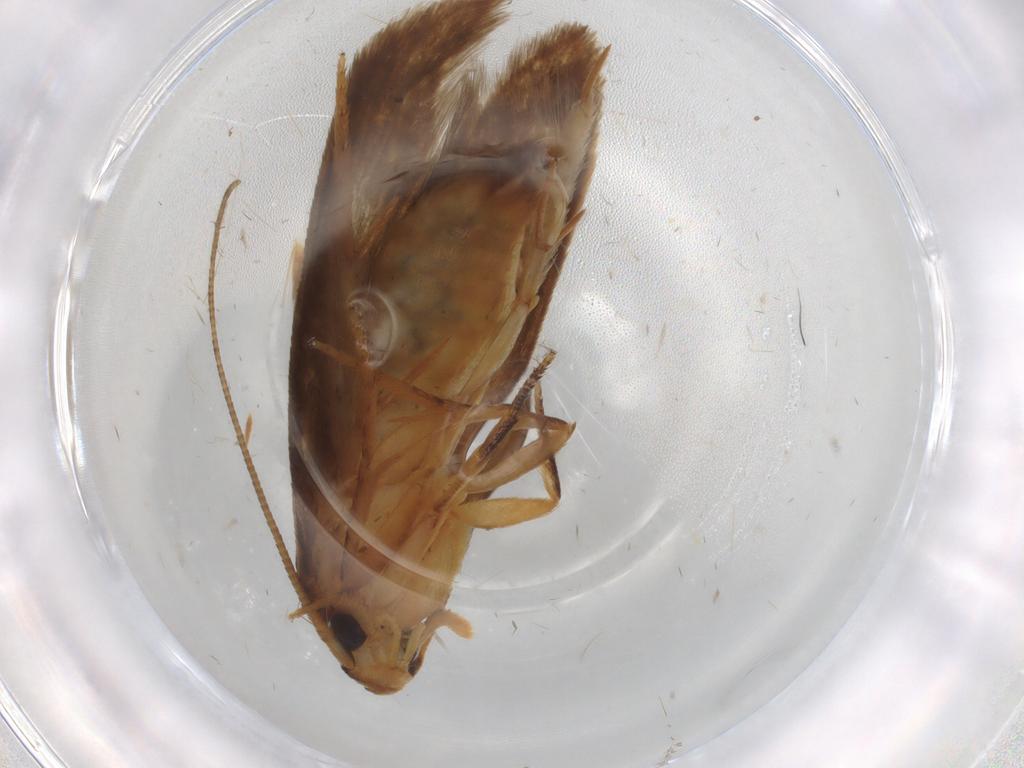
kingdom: Animalia
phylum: Arthropoda
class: Insecta
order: Lepidoptera
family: Tineidae
